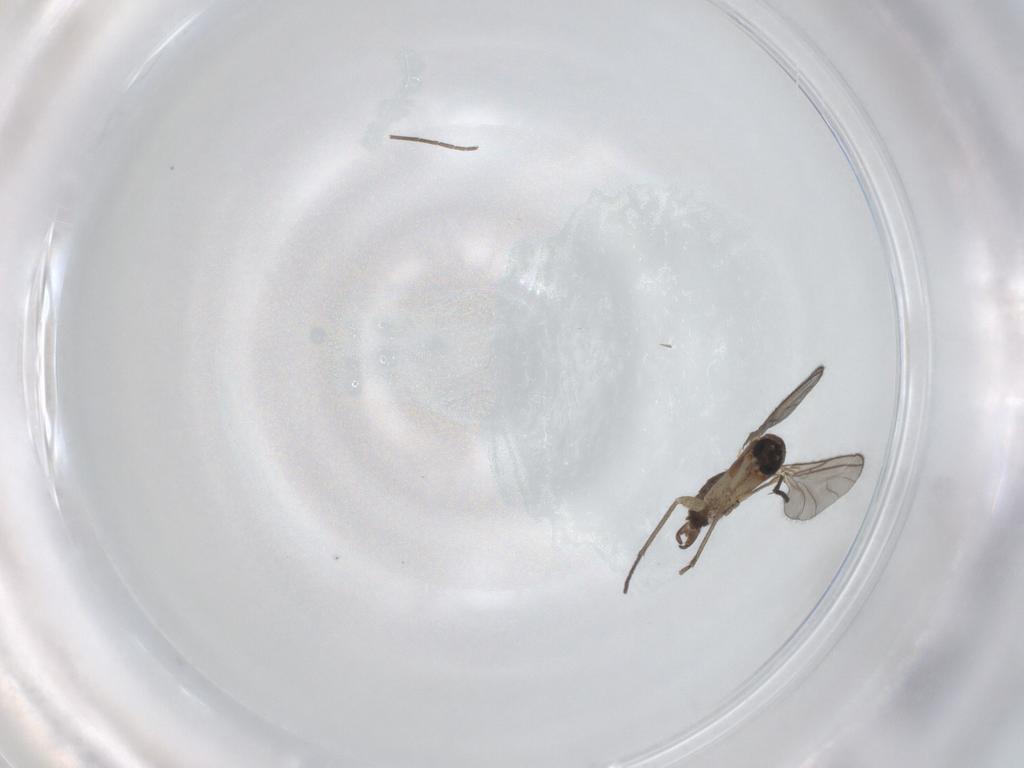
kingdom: Animalia
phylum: Arthropoda
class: Insecta
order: Diptera
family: Sciaridae
